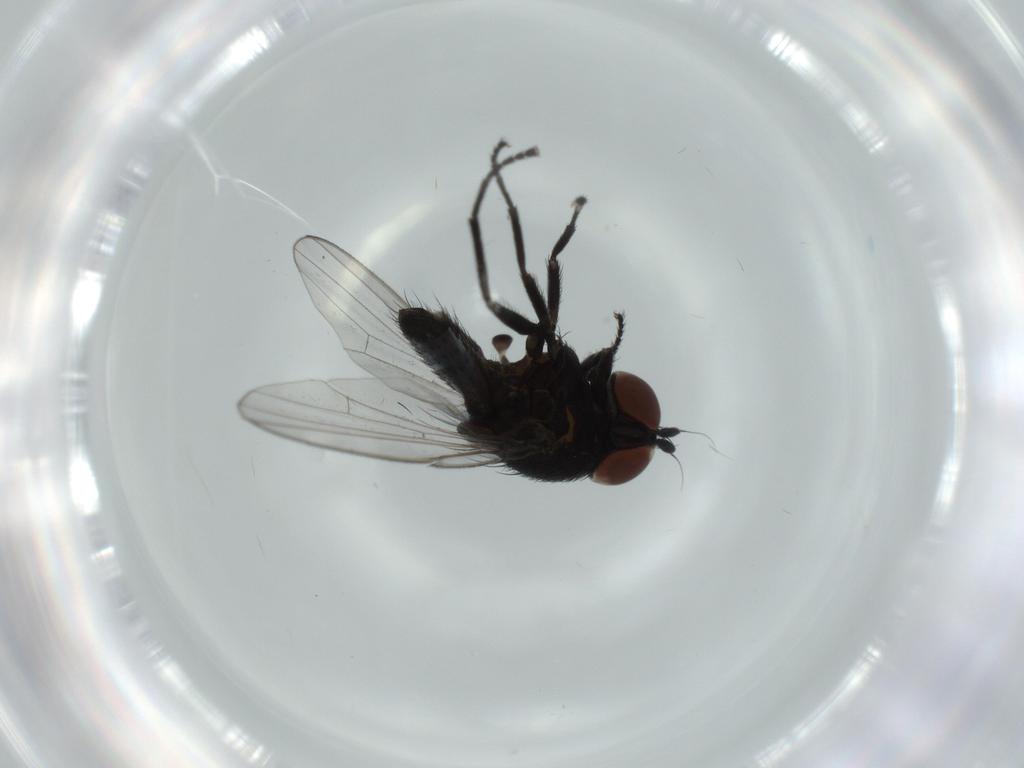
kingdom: Animalia
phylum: Arthropoda
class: Insecta
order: Diptera
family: Milichiidae
